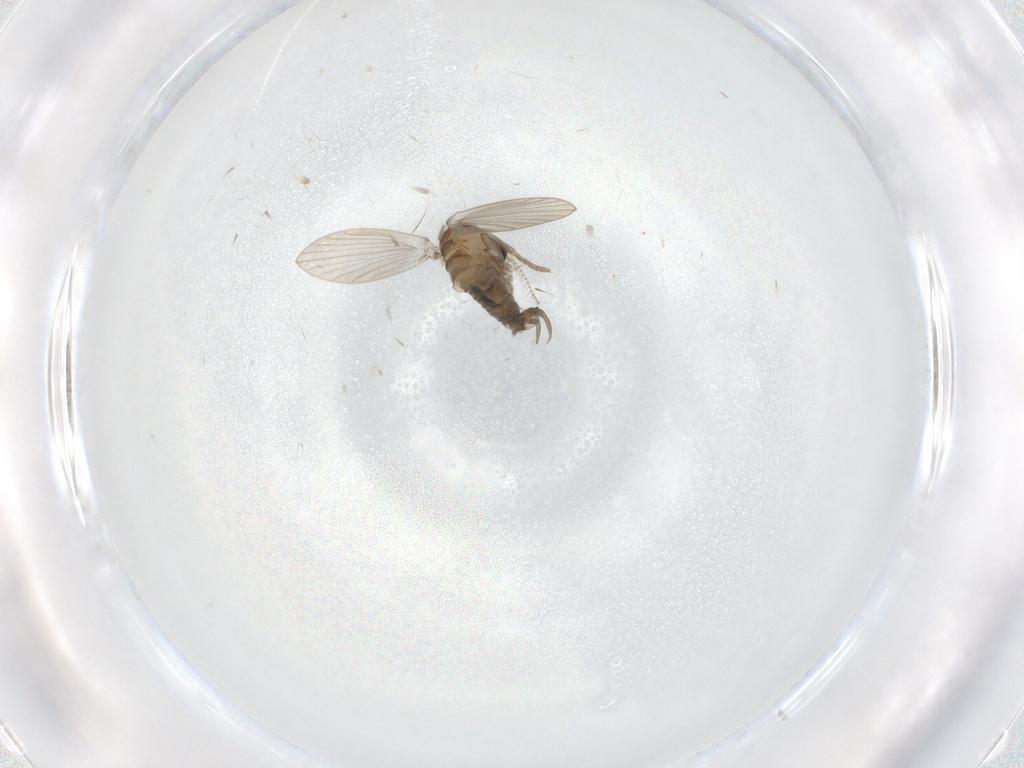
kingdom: Animalia
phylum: Arthropoda
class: Insecta
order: Diptera
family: Psychodidae
